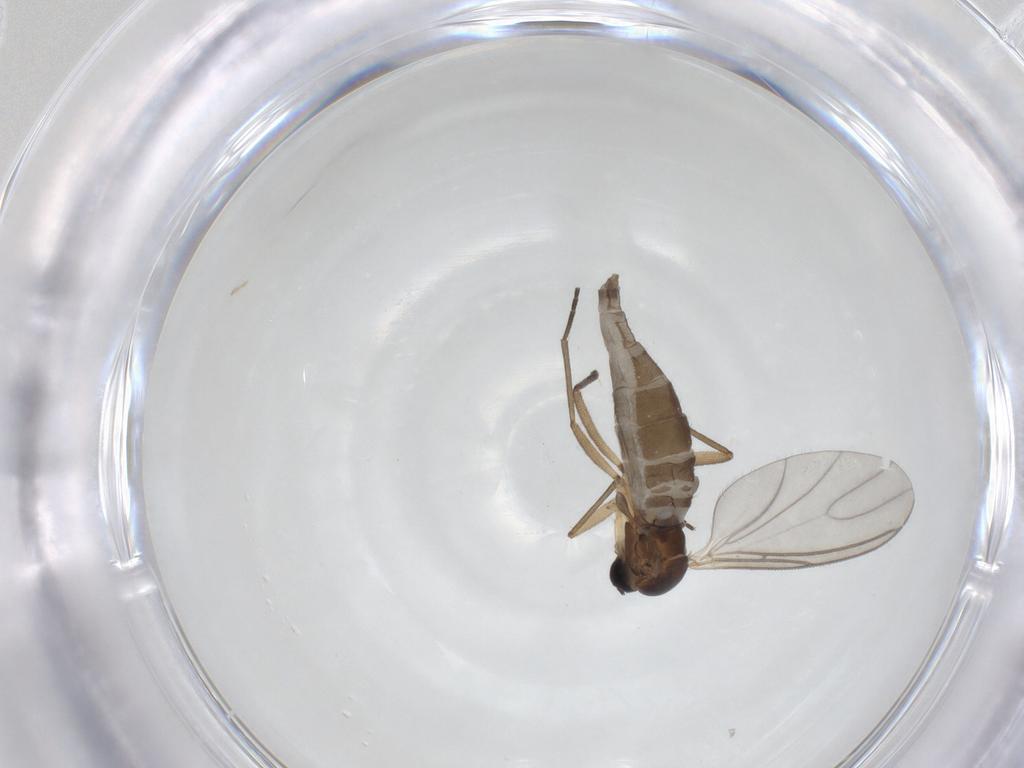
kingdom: Animalia
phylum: Arthropoda
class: Insecta
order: Diptera
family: Sciaridae
